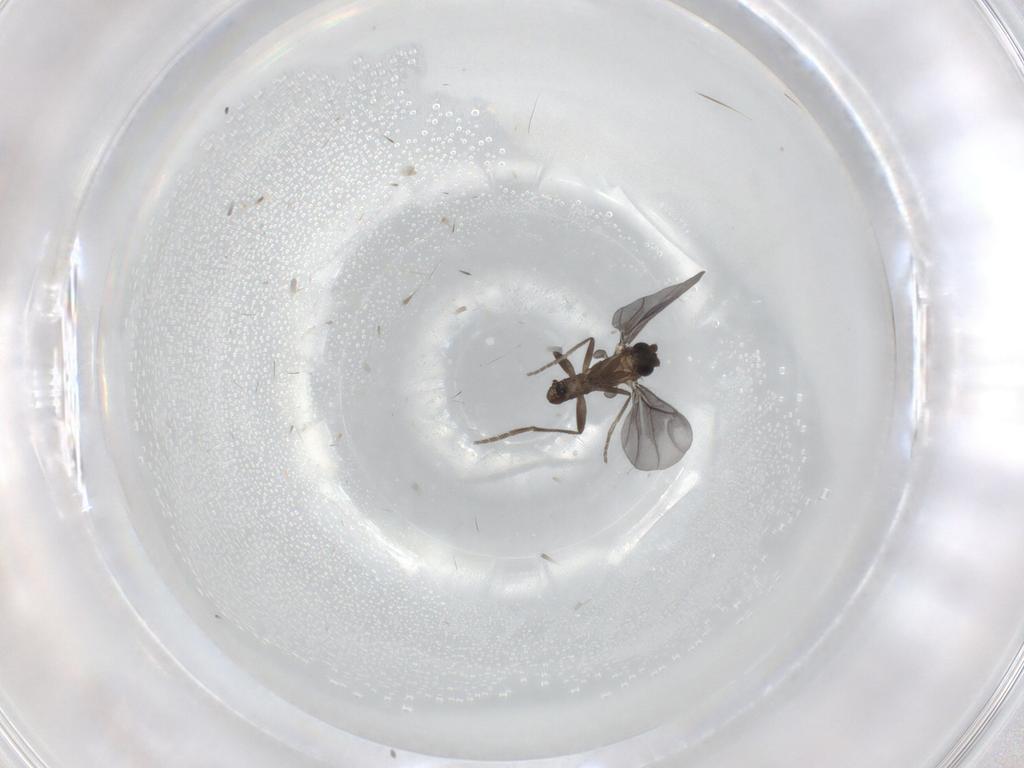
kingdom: Animalia
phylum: Arthropoda
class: Insecta
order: Diptera
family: Phoridae
